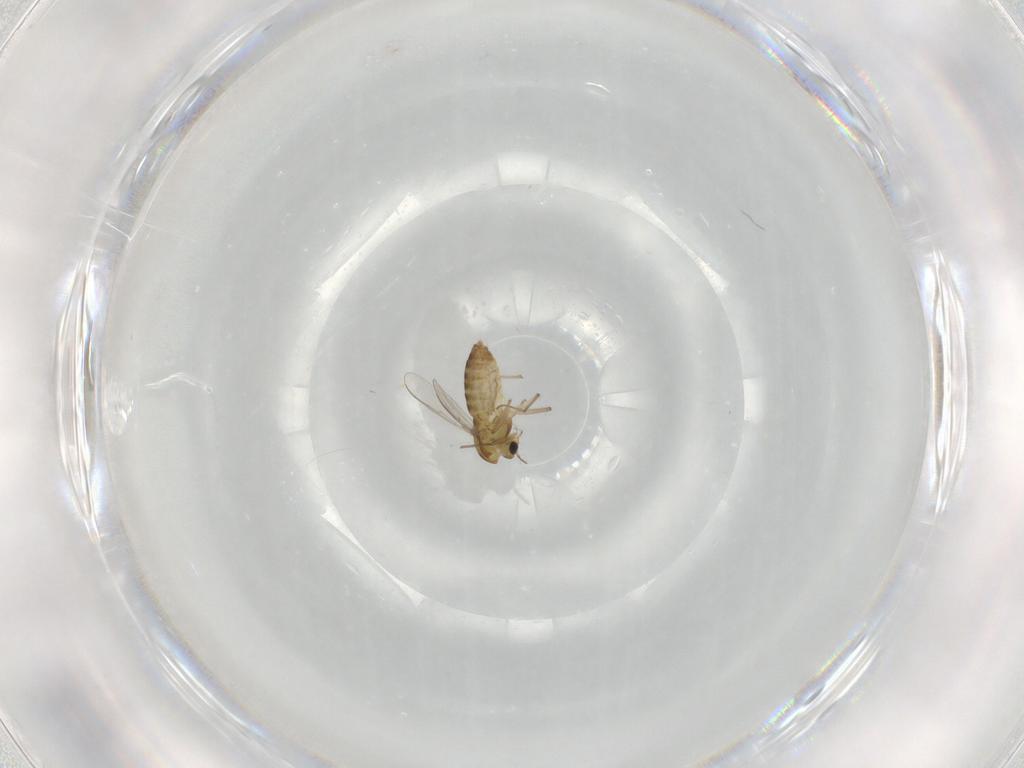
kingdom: Animalia
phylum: Arthropoda
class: Insecta
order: Diptera
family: Chironomidae
